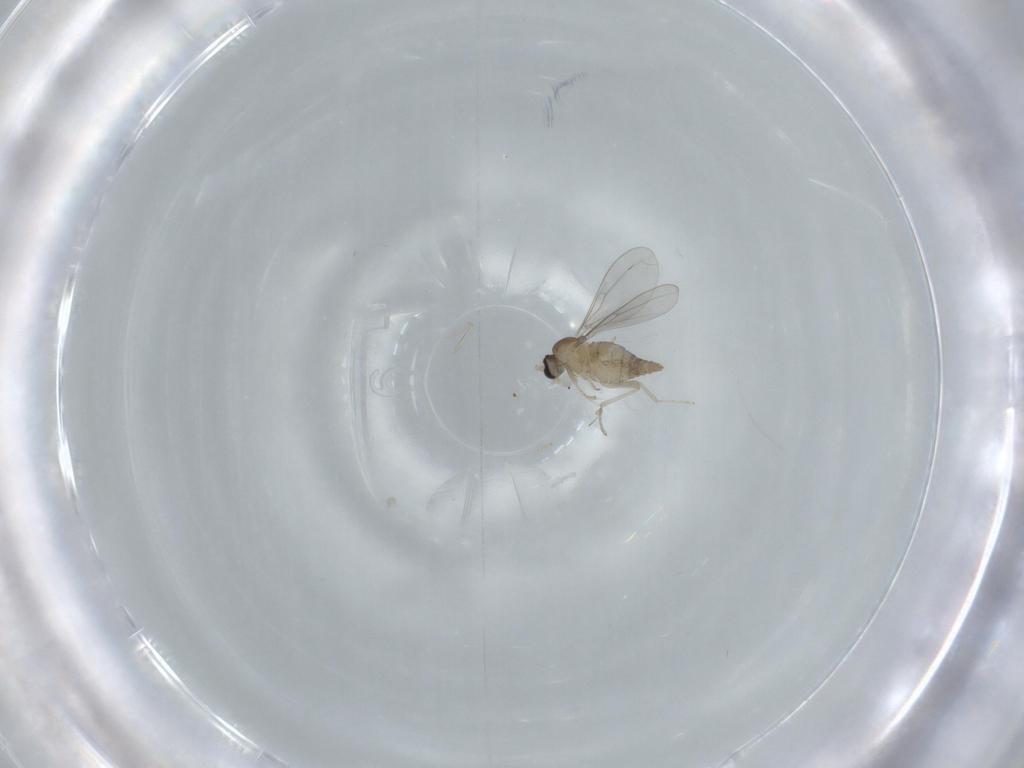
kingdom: Animalia
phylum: Arthropoda
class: Insecta
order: Diptera
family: Cecidomyiidae
